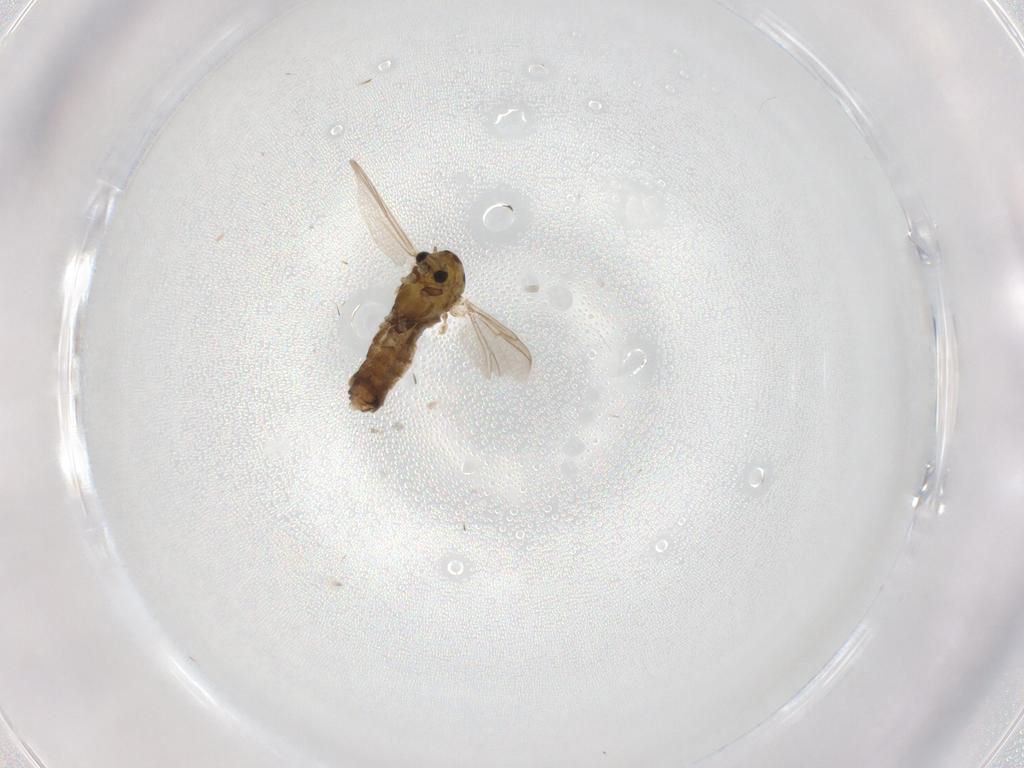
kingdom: Animalia
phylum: Arthropoda
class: Insecta
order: Diptera
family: Chironomidae
